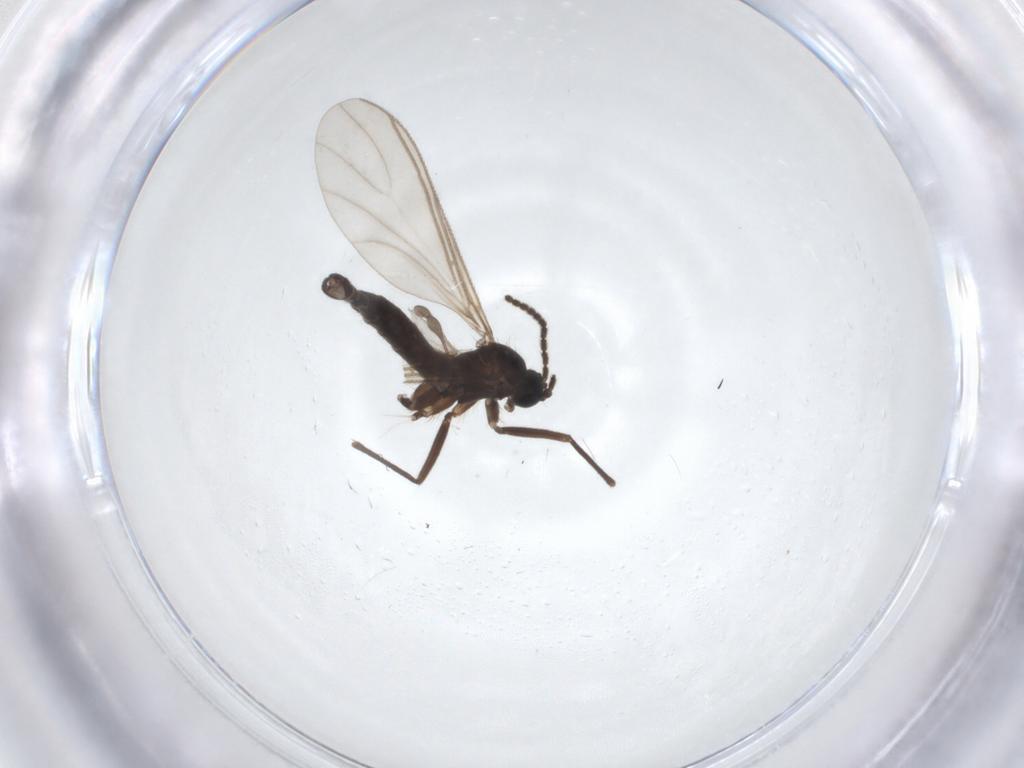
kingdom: Animalia
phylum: Arthropoda
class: Insecta
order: Diptera
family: Sciaridae
